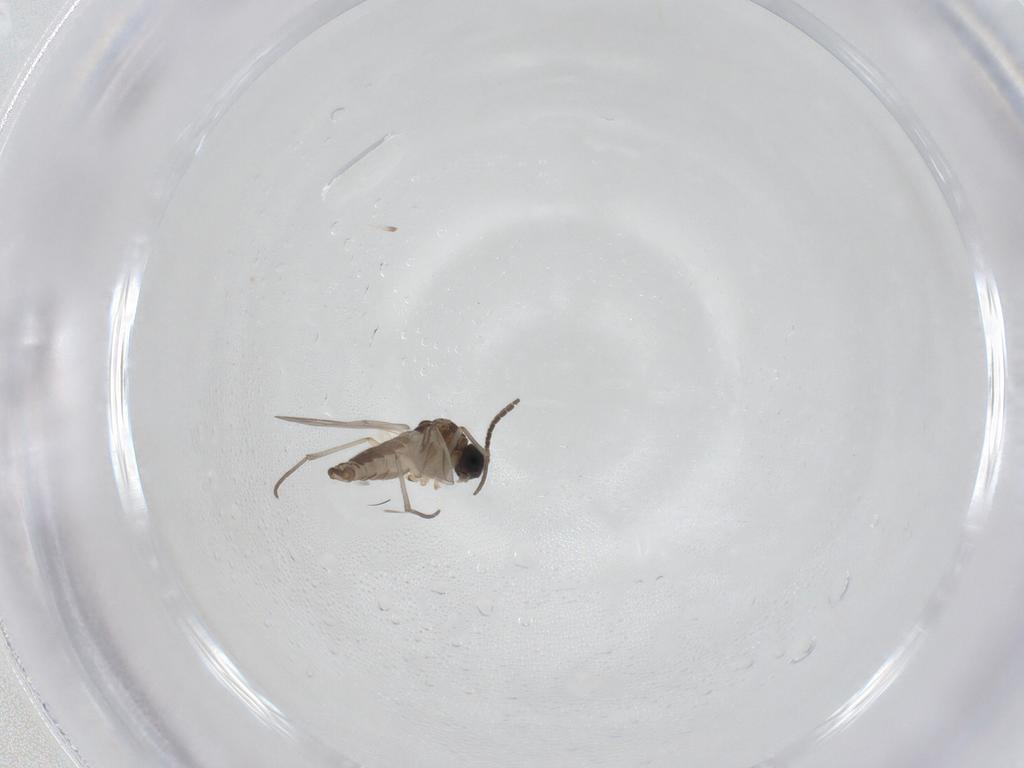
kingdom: Animalia
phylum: Arthropoda
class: Insecta
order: Diptera
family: Sciaridae
